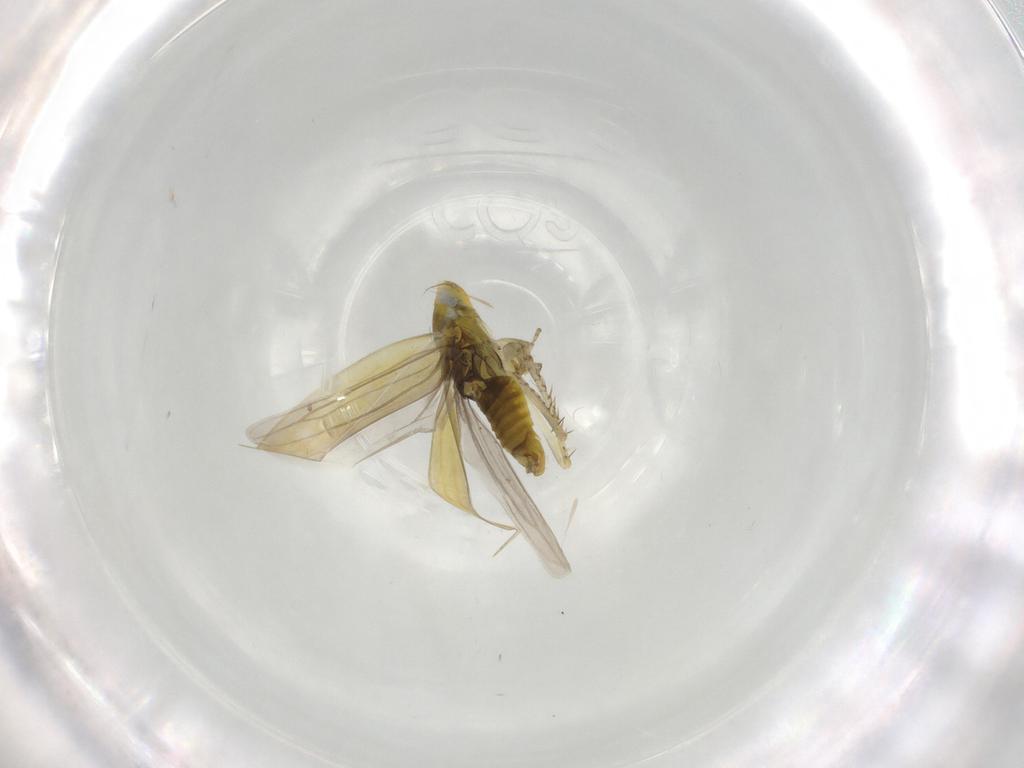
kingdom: Animalia
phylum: Arthropoda
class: Insecta
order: Hemiptera
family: Cicadellidae
